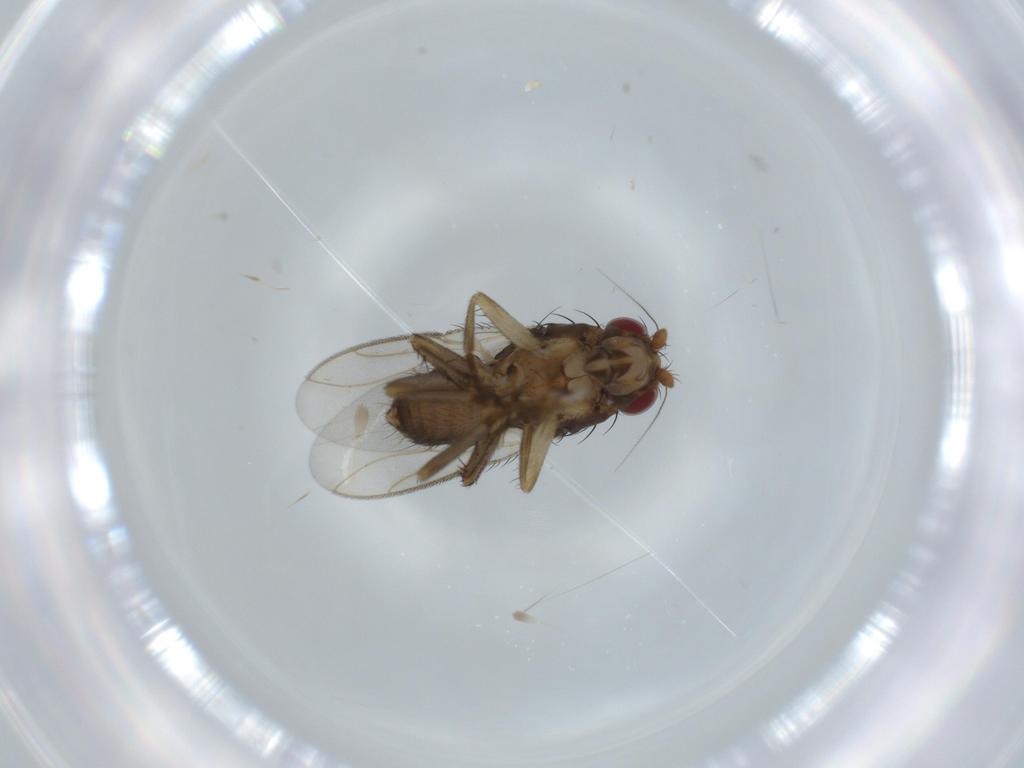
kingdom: Animalia
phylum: Arthropoda
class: Insecta
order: Diptera
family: Sphaeroceridae
